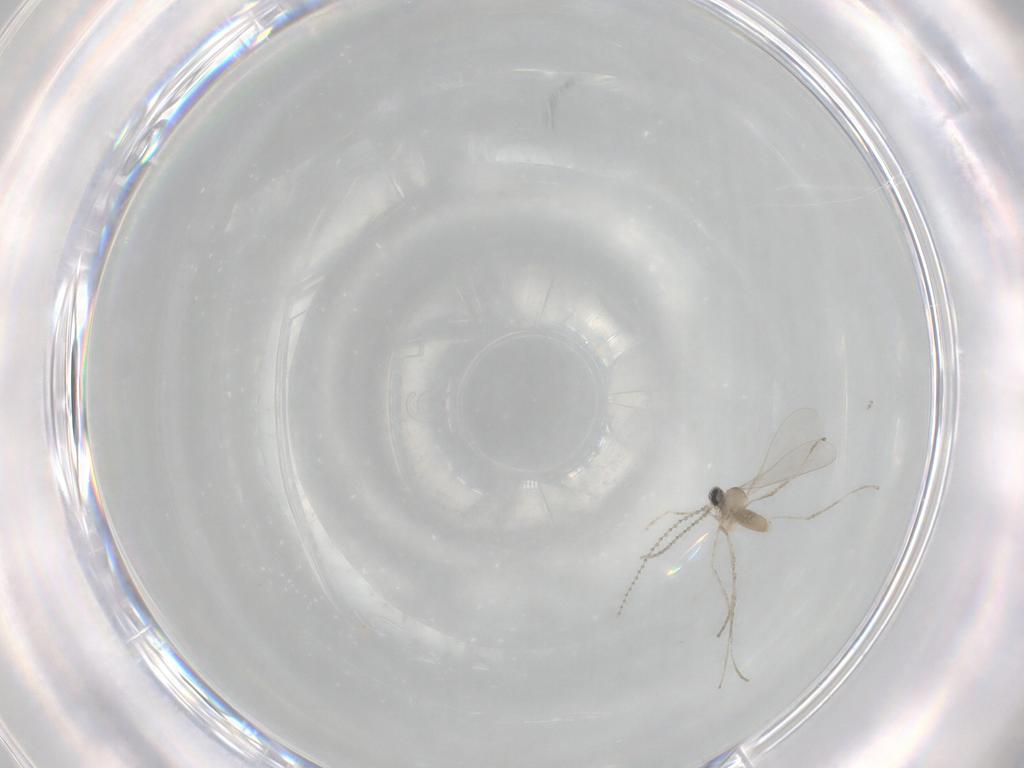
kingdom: Animalia
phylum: Arthropoda
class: Insecta
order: Diptera
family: Cecidomyiidae
